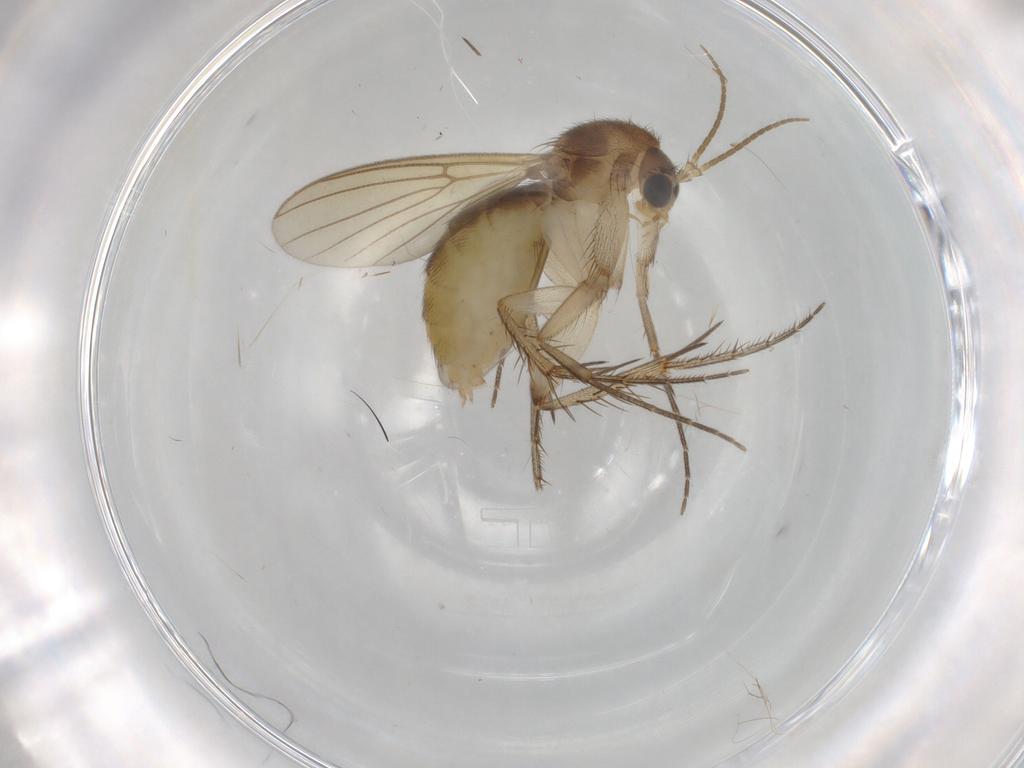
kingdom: Animalia
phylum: Arthropoda
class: Insecta
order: Diptera
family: Mycetophilidae
